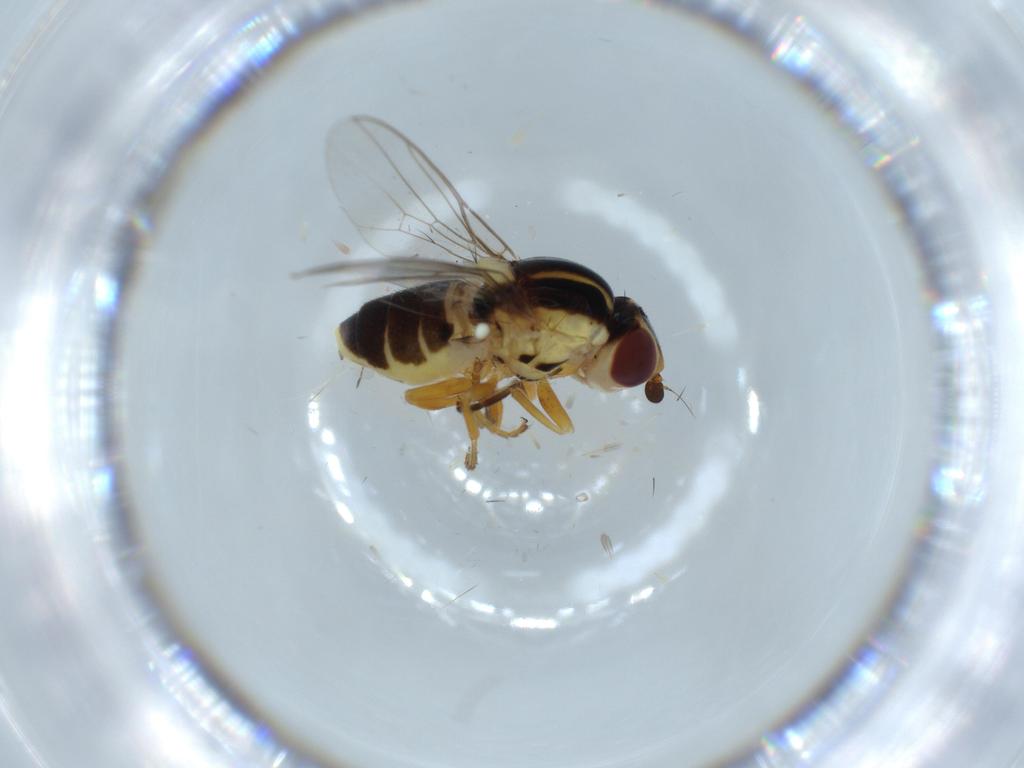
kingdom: Animalia
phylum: Arthropoda
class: Insecta
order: Diptera
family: Chloropidae
